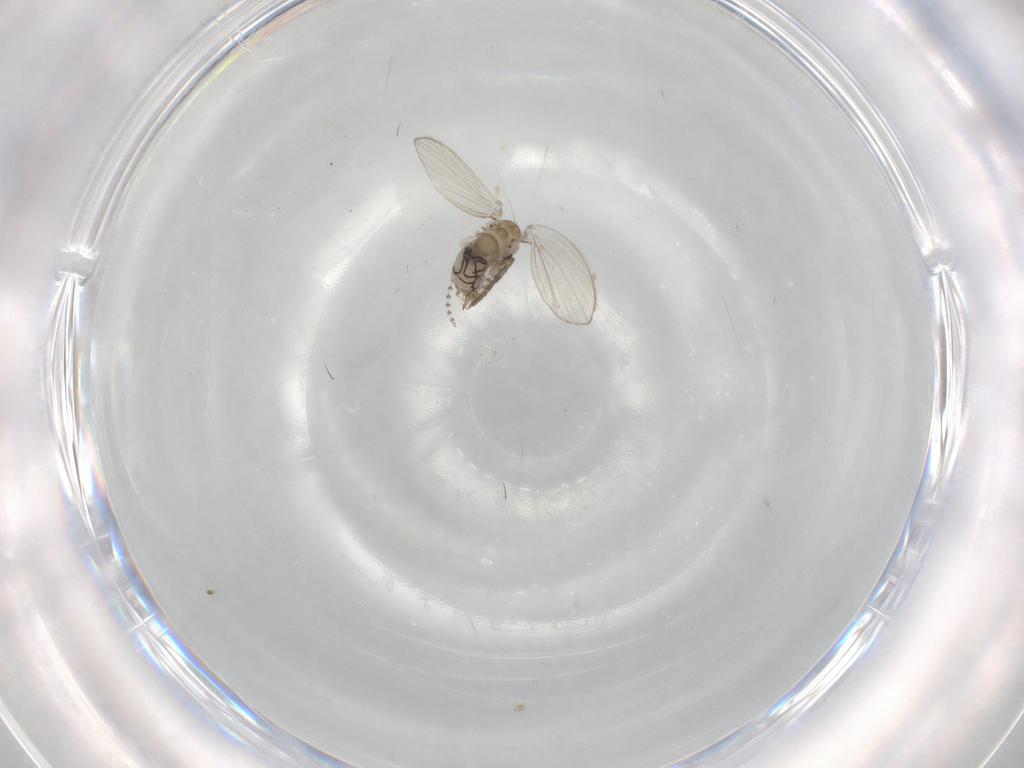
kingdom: Animalia
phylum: Arthropoda
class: Insecta
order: Diptera
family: Psychodidae
